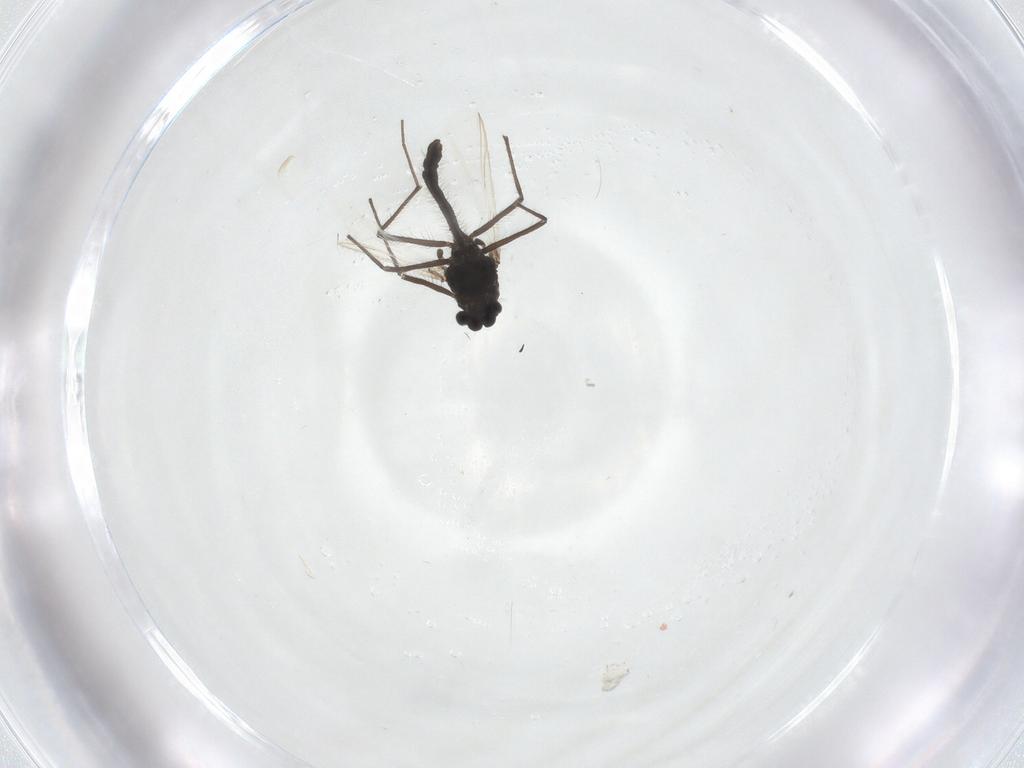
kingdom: Animalia
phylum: Arthropoda
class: Insecta
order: Diptera
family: Chironomidae
